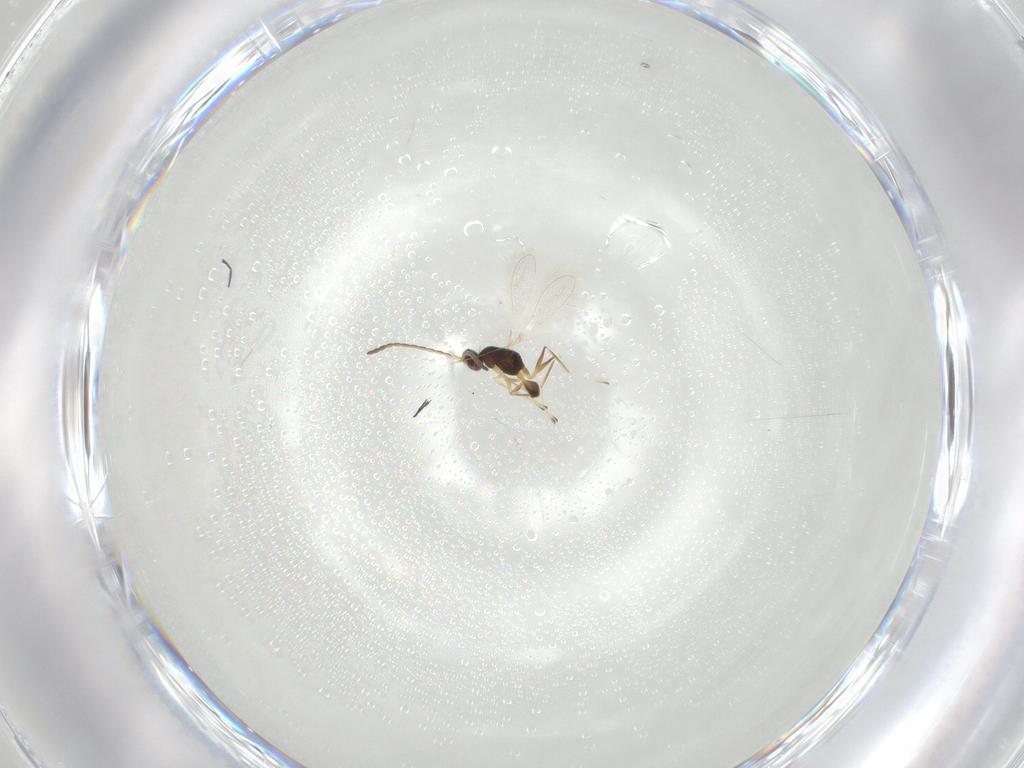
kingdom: Animalia
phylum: Arthropoda
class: Insecta
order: Hymenoptera
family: Mymaridae
